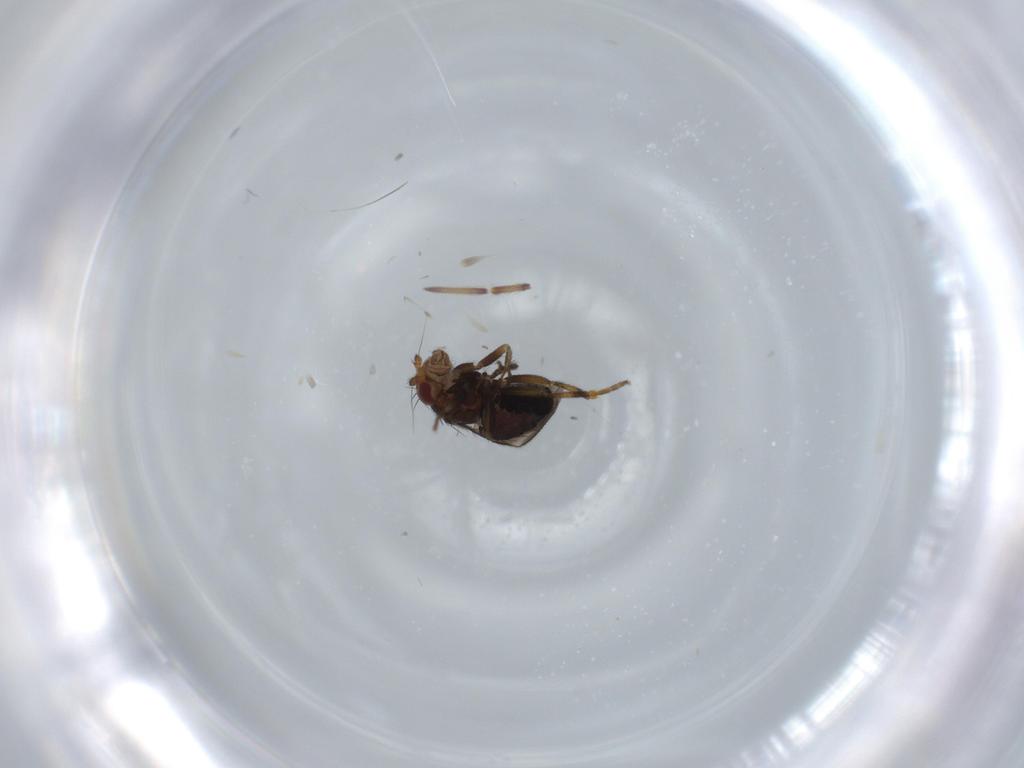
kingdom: Animalia
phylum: Arthropoda
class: Insecta
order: Diptera
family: Sphaeroceridae
